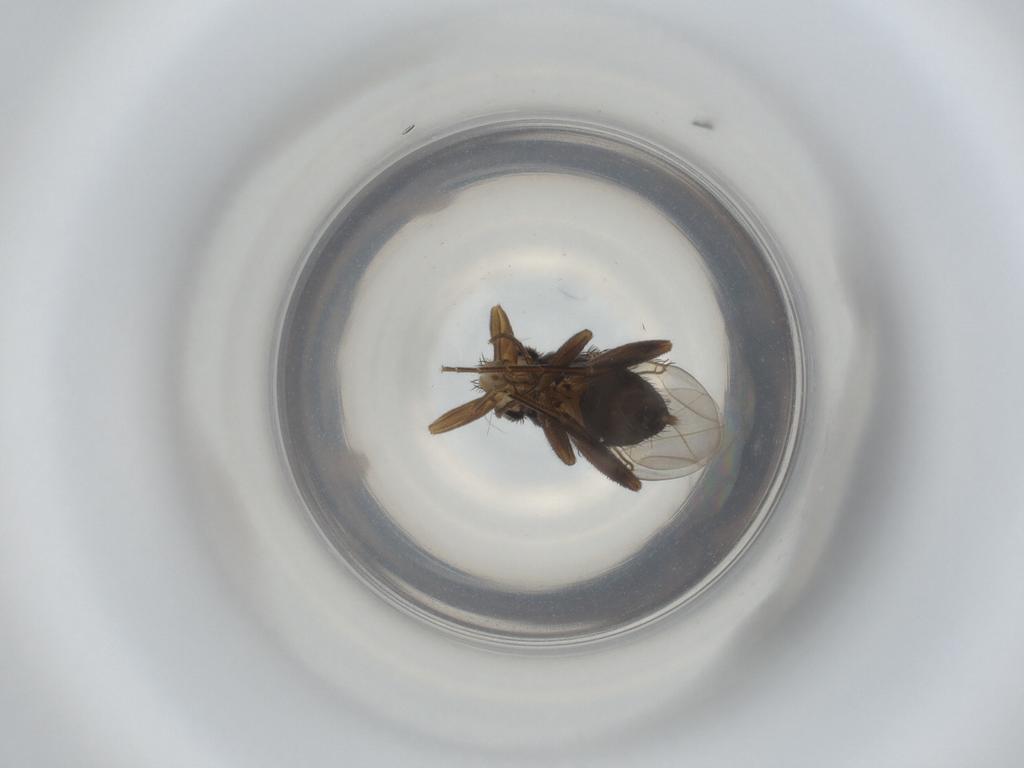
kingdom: Animalia
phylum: Arthropoda
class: Insecta
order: Diptera
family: Phoridae
